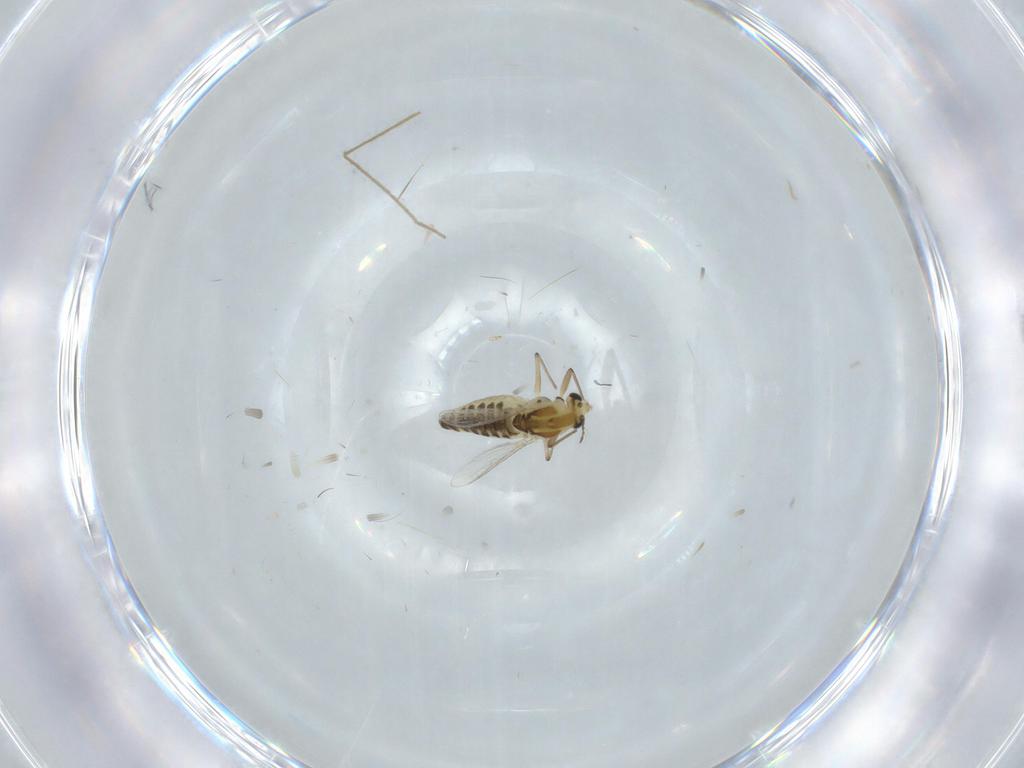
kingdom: Animalia
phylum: Arthropoda
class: Insecta
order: Diptera
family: Chironomidae
